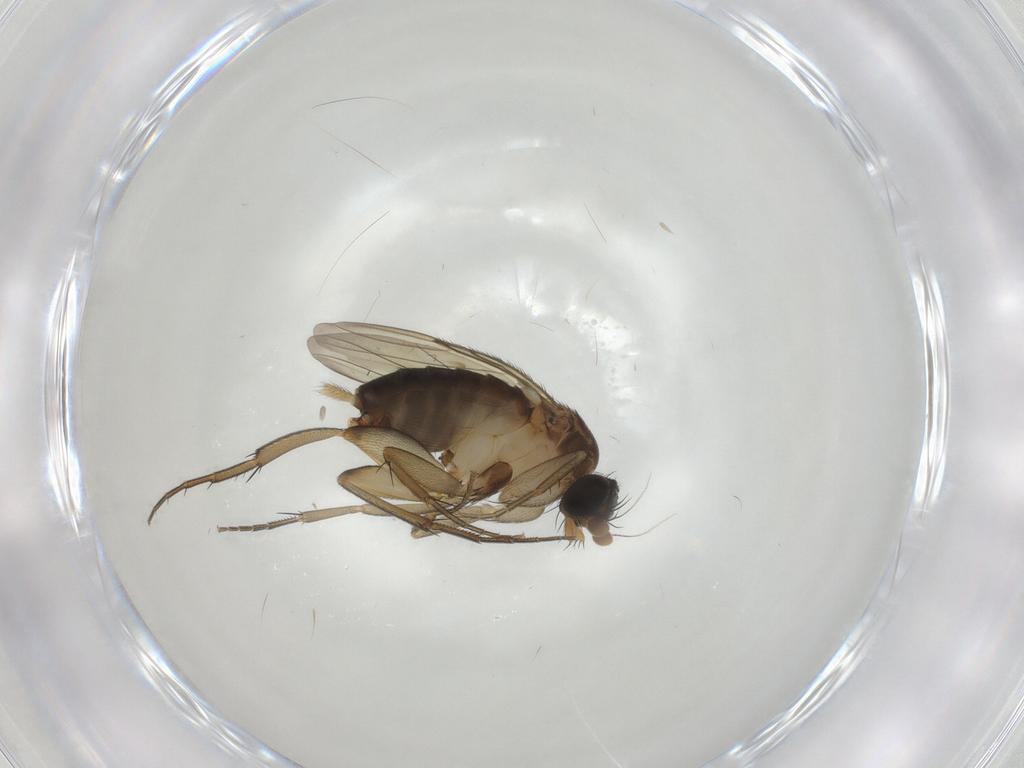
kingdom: Animalia
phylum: Arthropoda
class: Insecta
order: Diptera
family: Chironomidae
